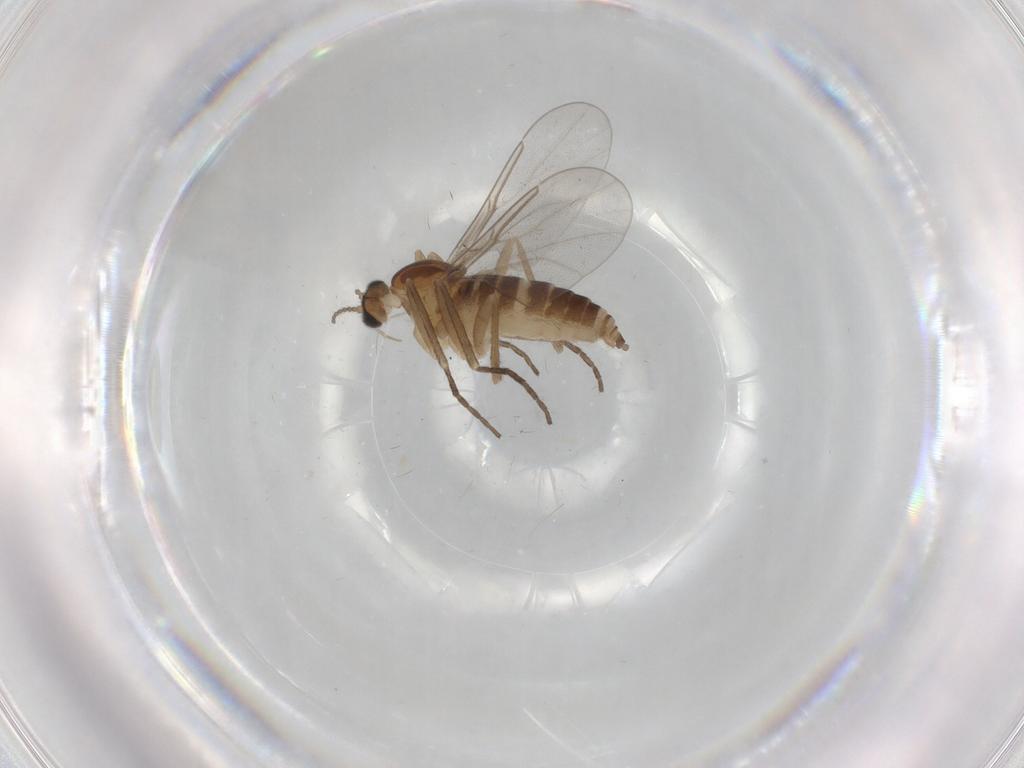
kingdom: Animalia
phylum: Arthropoda
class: Insecta
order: Diptera
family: Cecidomyiidae
